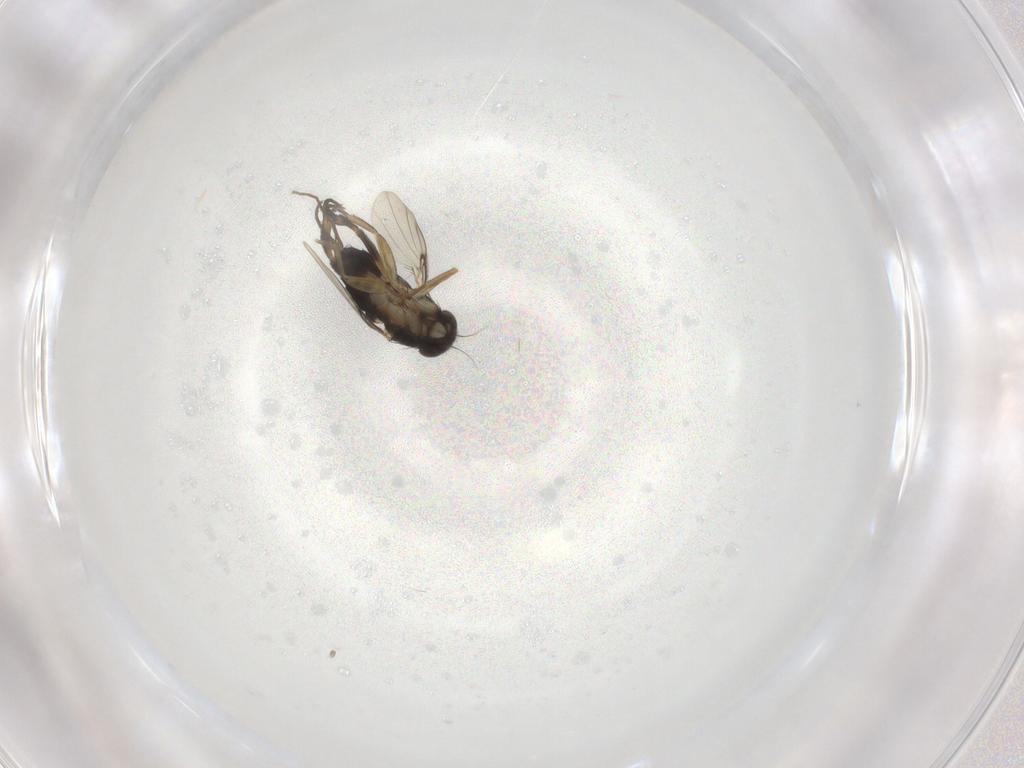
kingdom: Animalia
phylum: Arthropoda
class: Insecta
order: Diptera
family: Phoridae
